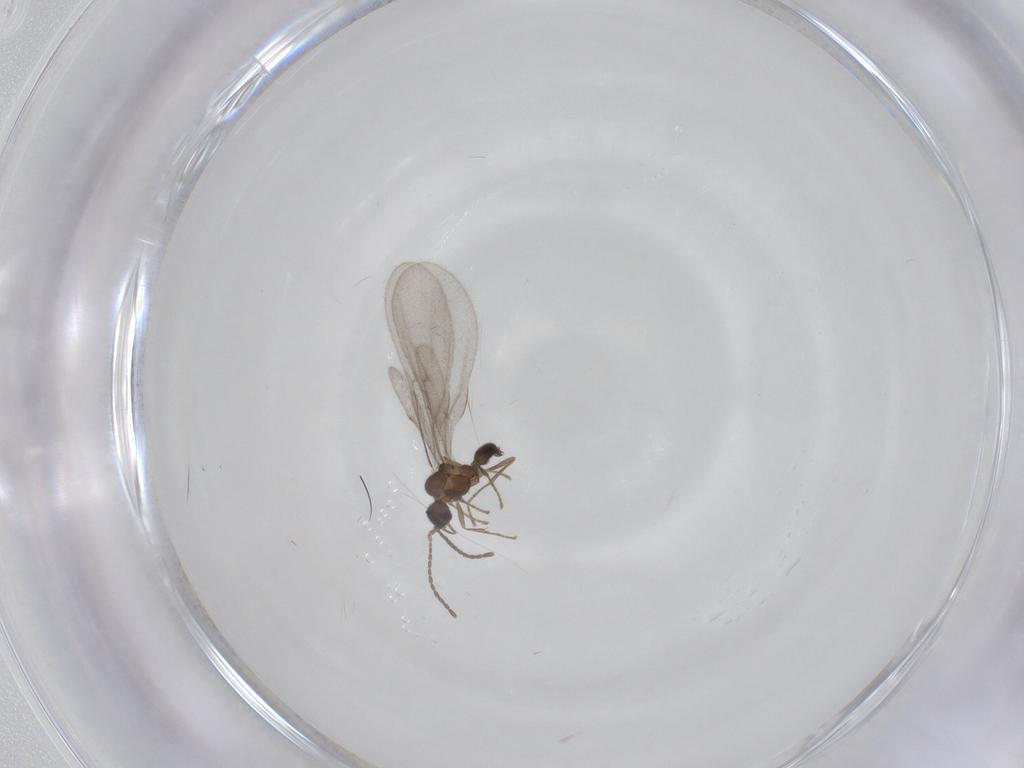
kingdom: Animalia
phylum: Arthropoda
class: Insecta
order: Hymenoptera
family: Formicidae
